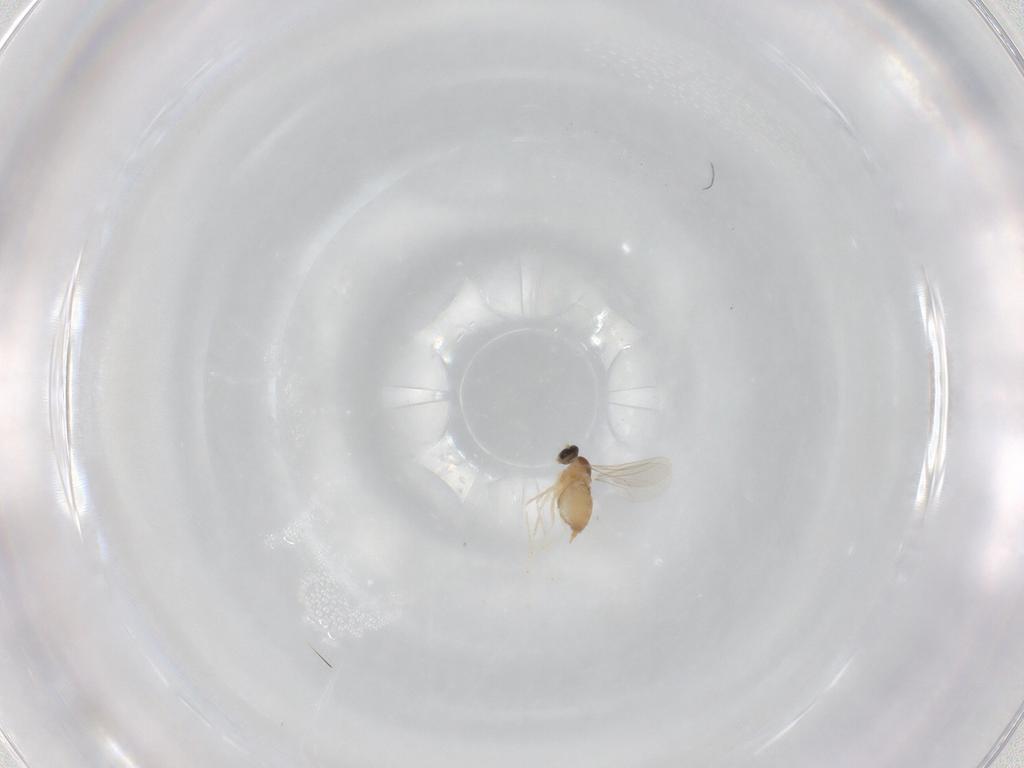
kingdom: Animalia
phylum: Arthropoda
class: Insecta
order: Diptera
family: Cecidomyiidae
